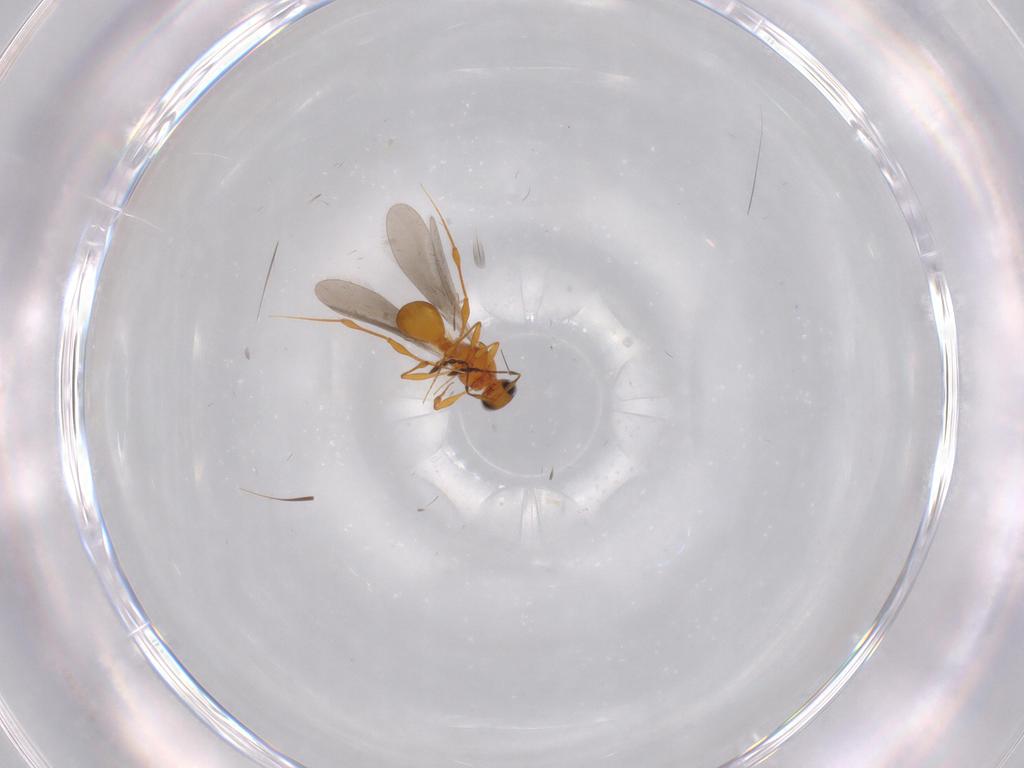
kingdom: Animalia
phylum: Arthropoda
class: Insecta
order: Hymenoptera
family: Platygastridae
